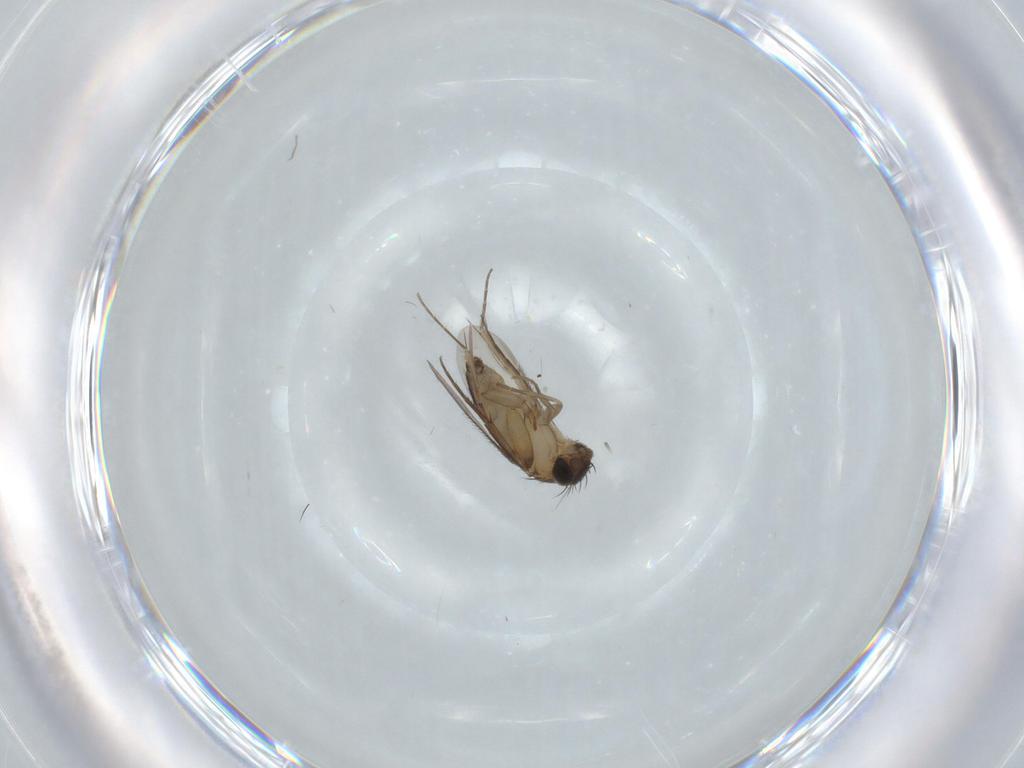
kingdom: Animalia
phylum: Arthropoda
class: Insecta
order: Diptera
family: Phoridae
